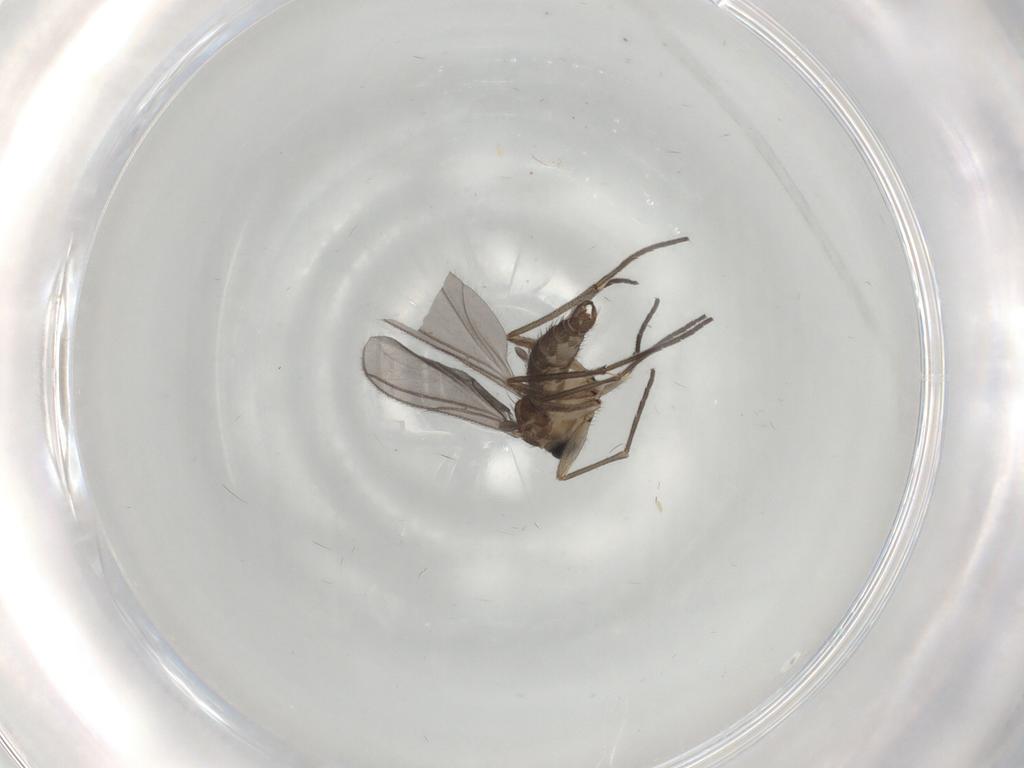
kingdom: Animalia
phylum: Arthropoda
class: Insecta
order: Diptera
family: Sciaridae
